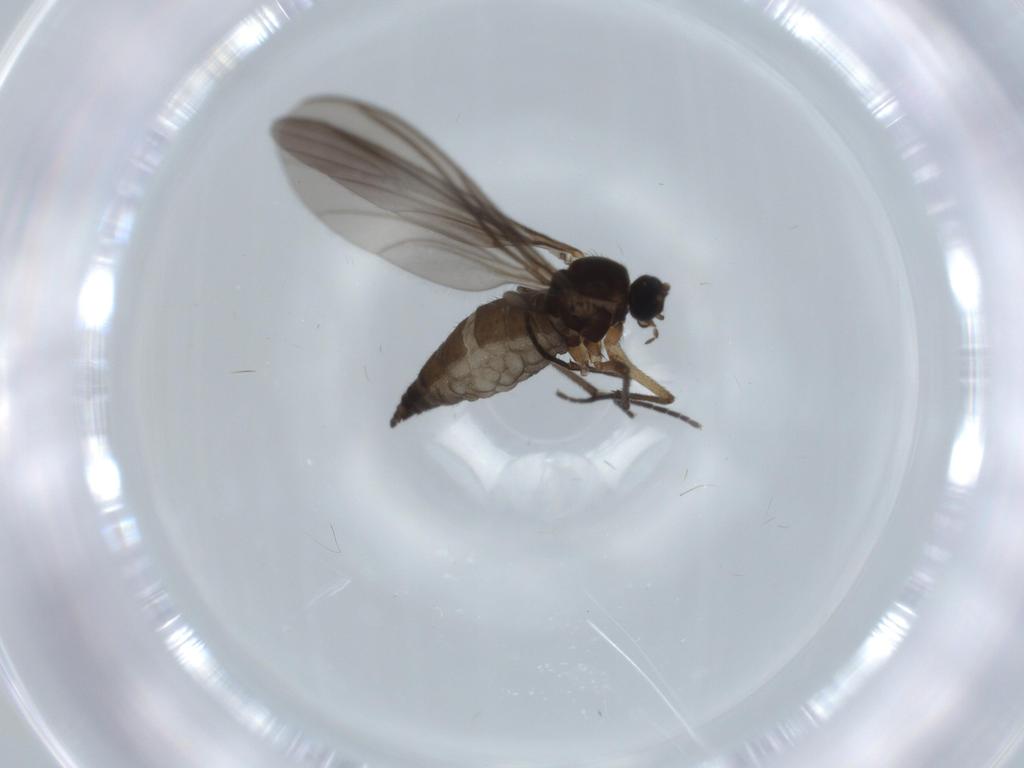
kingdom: Animalia
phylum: Arthropoda
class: Insecta
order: Diptera
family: Sciaridae
